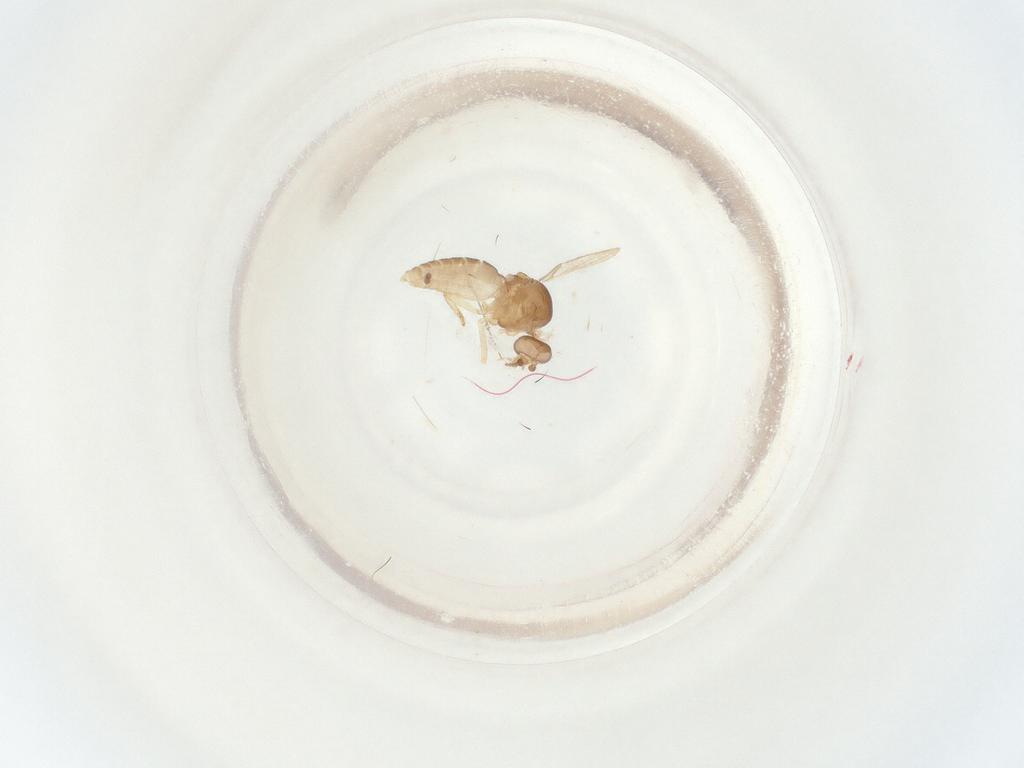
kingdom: Animalia
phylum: Arthropoda
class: Insecta
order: Diptera
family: Ceratopogonidae
